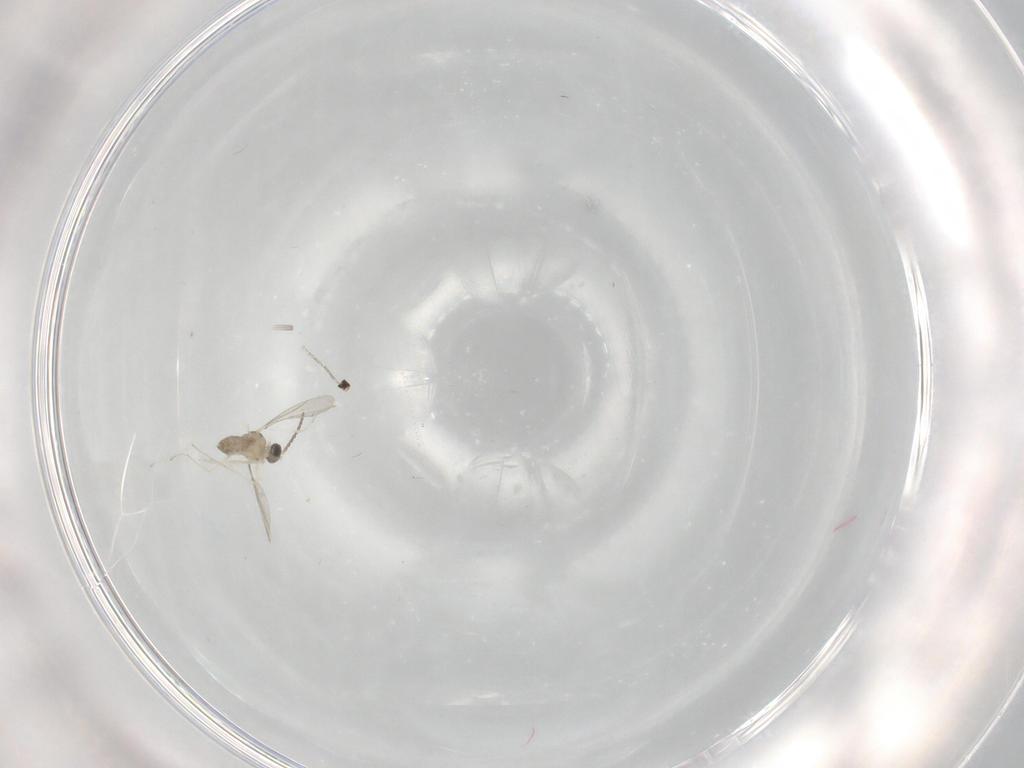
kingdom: Animalia
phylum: Arthropoda
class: Insecta
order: Diptera
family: Cecidomyiidae
